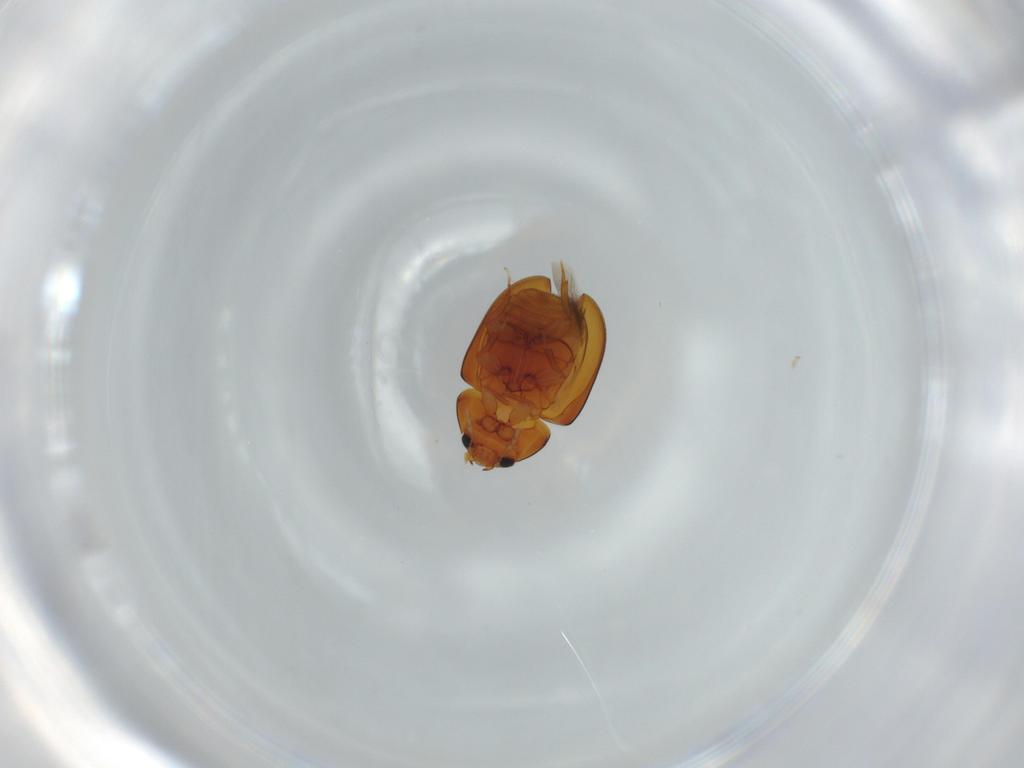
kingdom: Animalia
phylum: Arthropoda
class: Insecta
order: Coleoptera
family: Phalacridae
